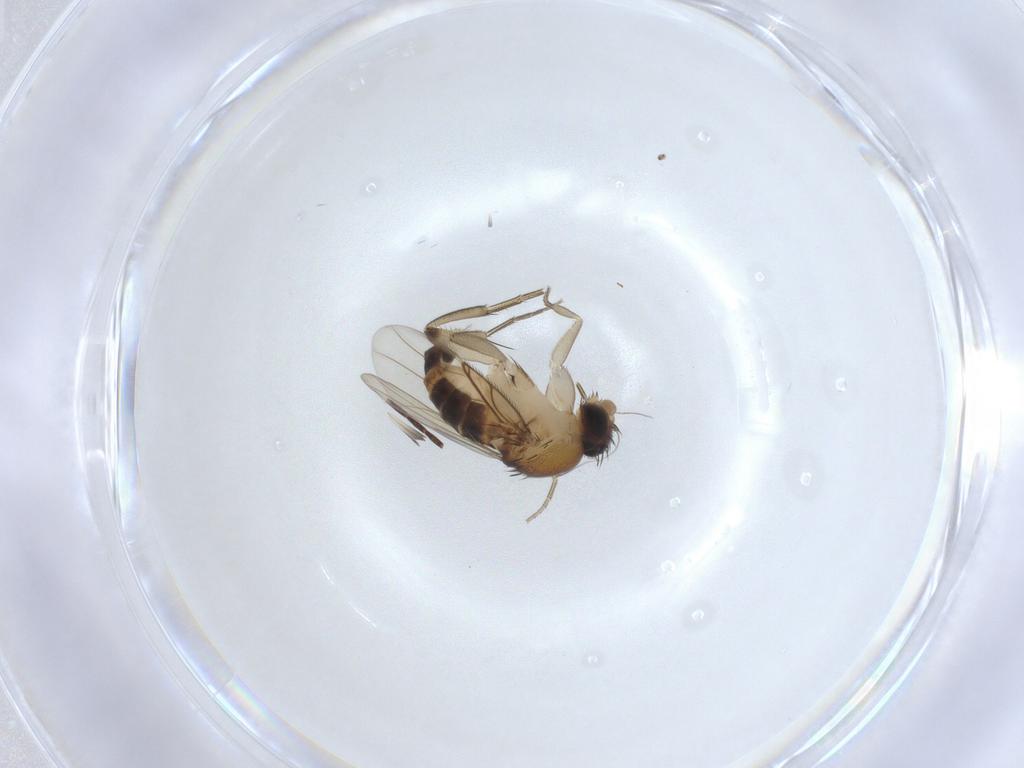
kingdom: Animalia
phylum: Arthropoda
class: Insecta
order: Diptera
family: Phoridae
